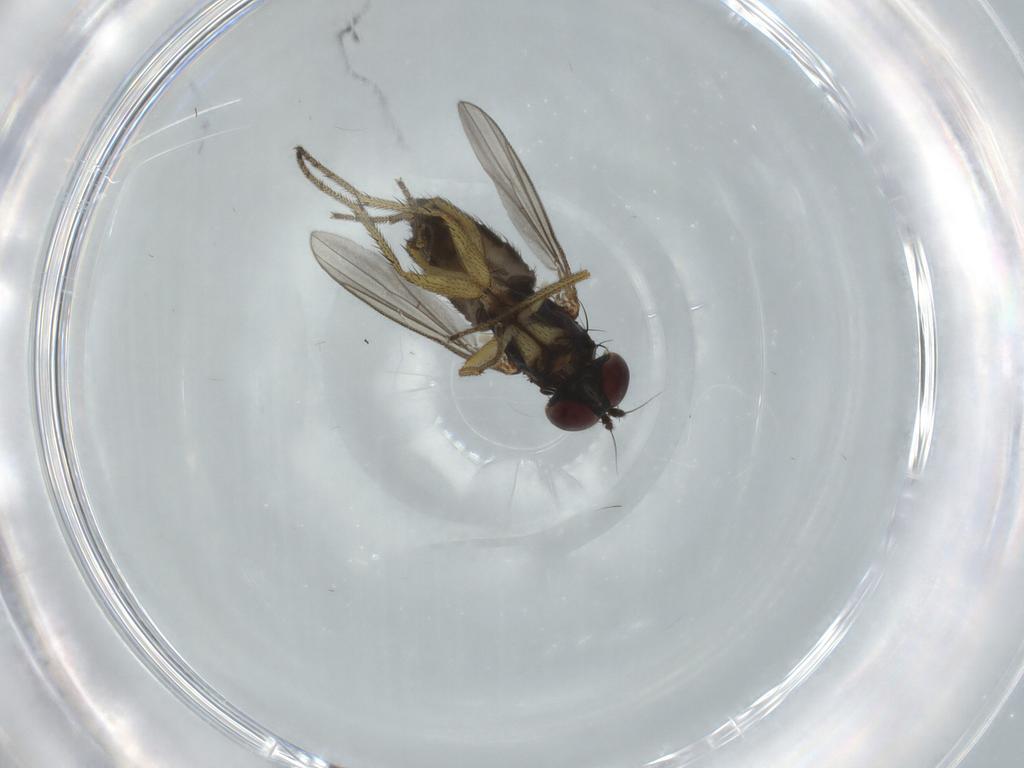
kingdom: Animalia
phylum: Arthropoda
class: Insecta
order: Diptera
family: Dolichopodidae
